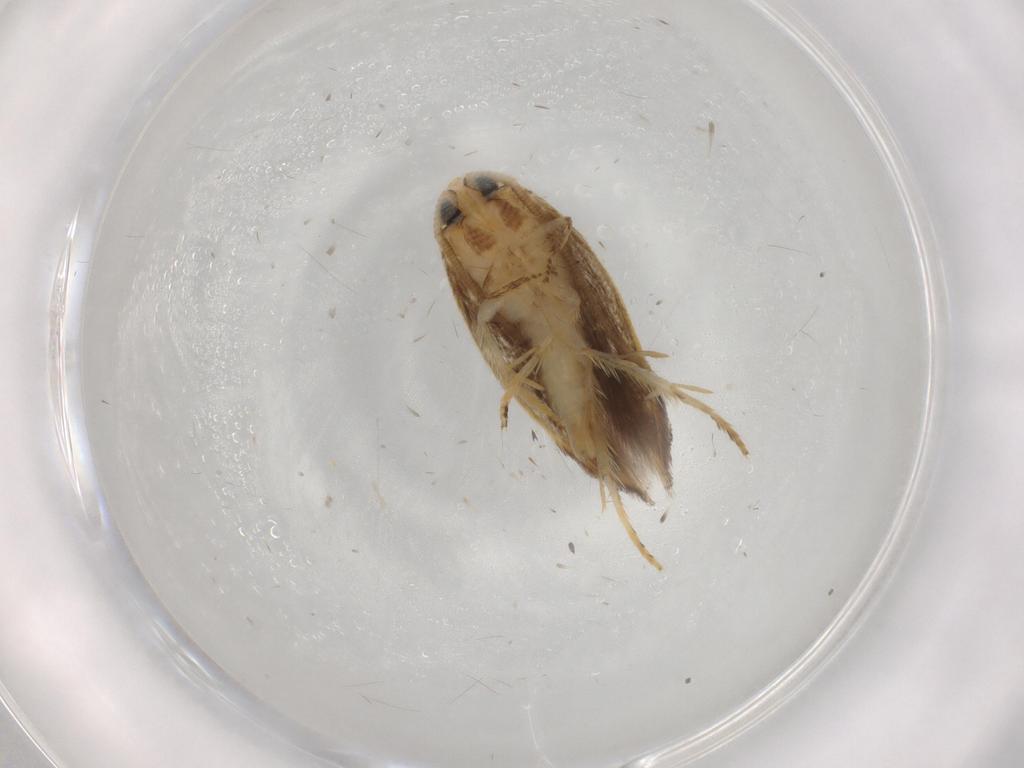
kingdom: Animalia
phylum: Arthropoda
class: Insecta
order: Lepidoptera
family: Opostegidae
